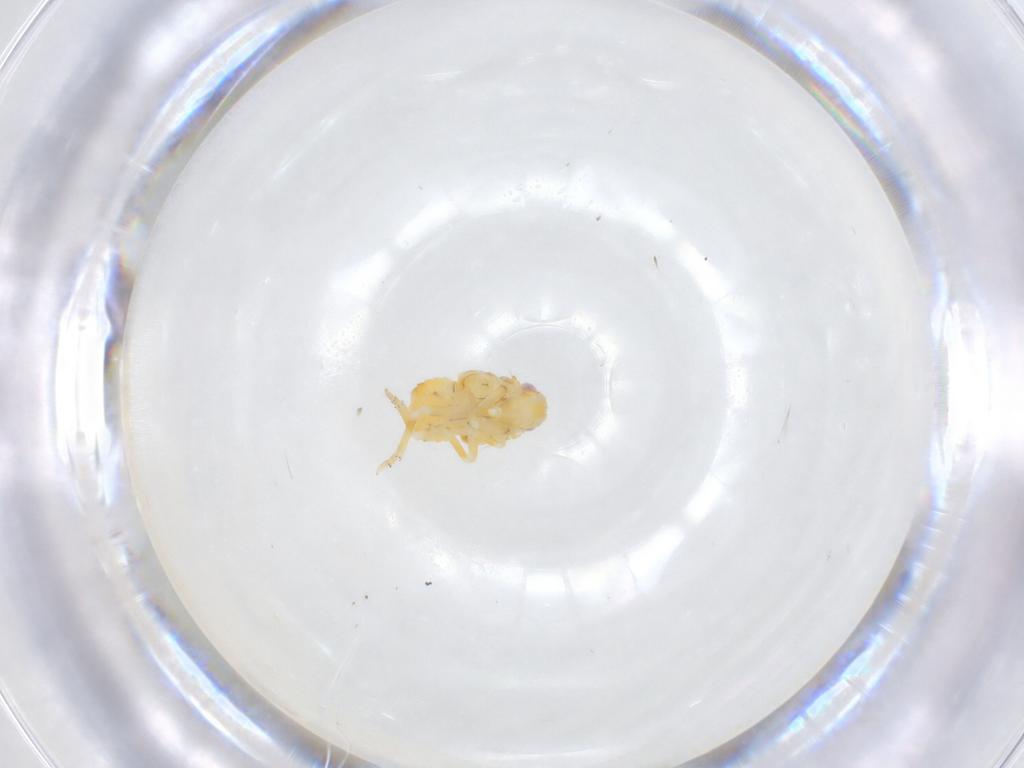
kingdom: Animalia
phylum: Arthropoda
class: Insecta
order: Hemiptera
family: Fulgoroidea_incertae_sedis
